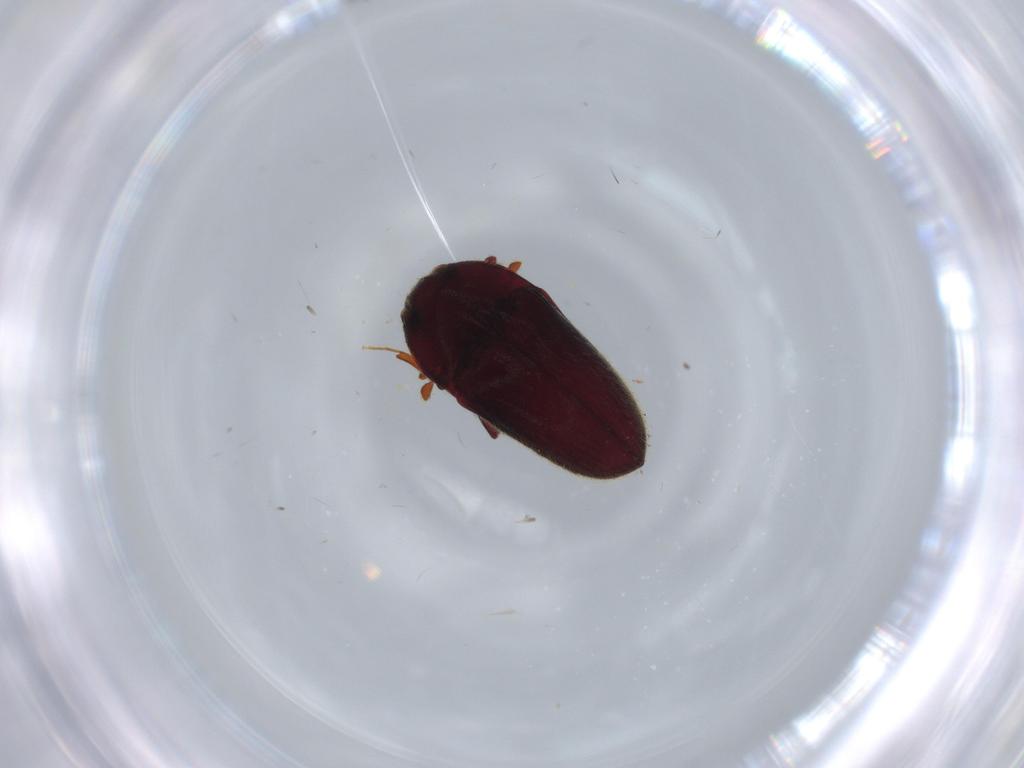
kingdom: Animalia
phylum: Arthropoda
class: Insecta
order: Coleoptera
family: Throscidae
